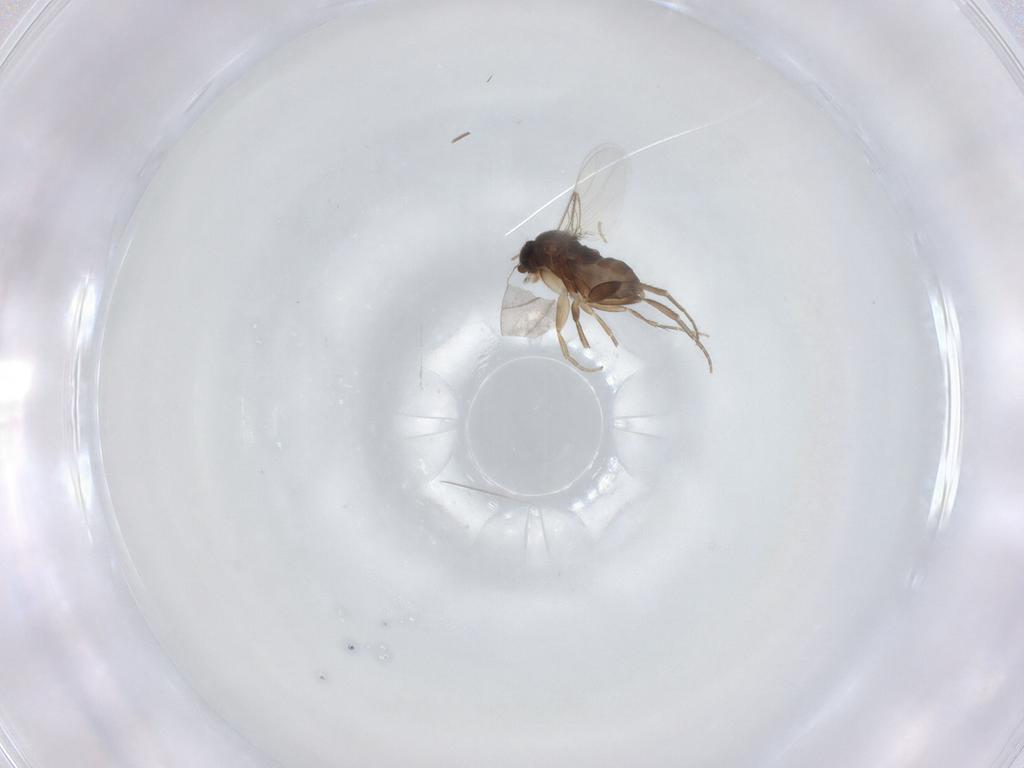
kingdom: Animalia
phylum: Arthropoda
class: Insecta
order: Diptera
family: Phoridae
